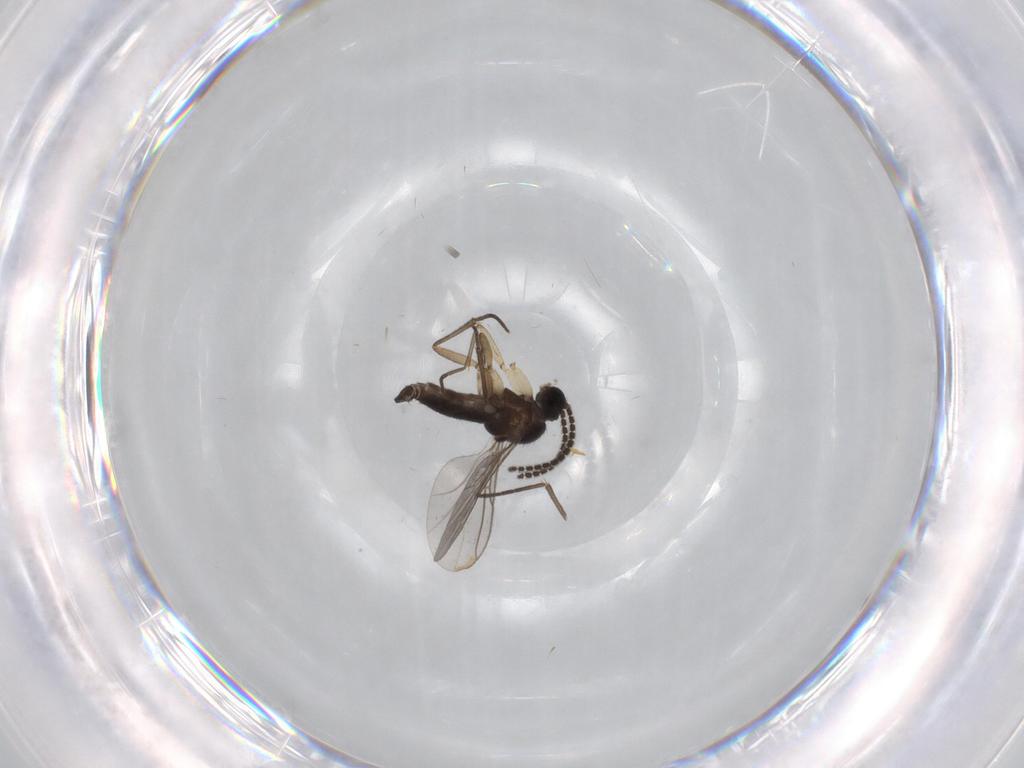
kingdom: Animalia
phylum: Arthropoda
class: Insecta
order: Diptera
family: Sciaridae
